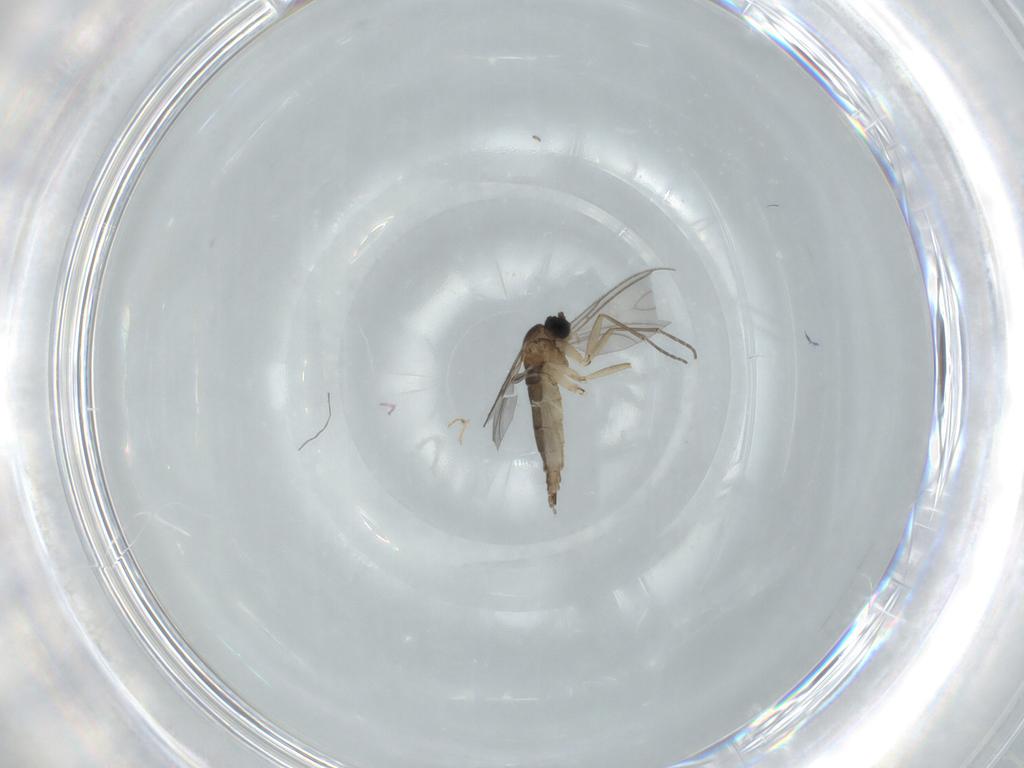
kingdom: Animalia
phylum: Arthropoda
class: Insecta
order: Diptera
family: Sciaridae
